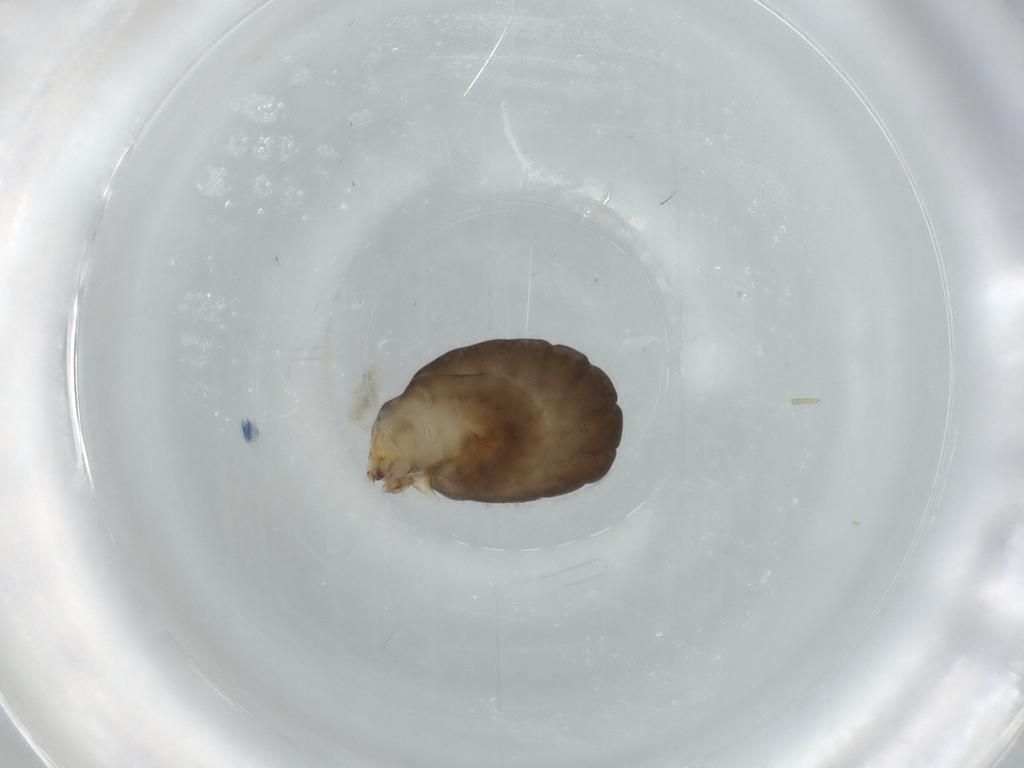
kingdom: Animalia
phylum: Arthropoda
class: Insecta
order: Hymenoptera
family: Dryinidae
